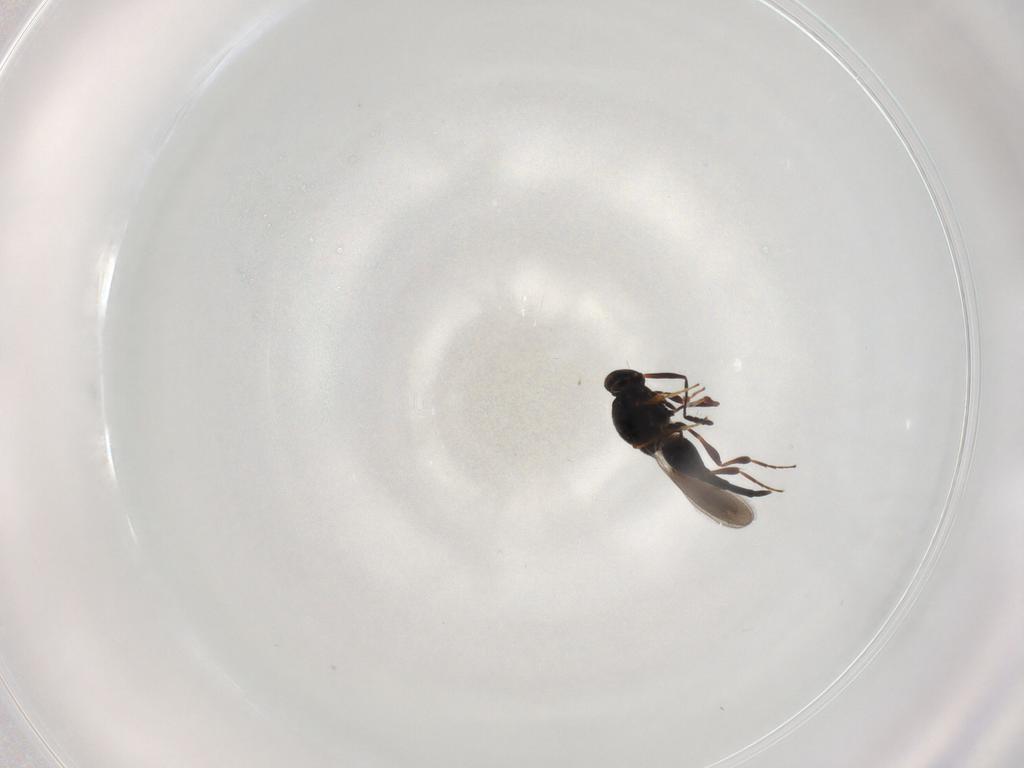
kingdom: Animalia
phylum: Arthropoda
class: Insecta
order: Hymenoptera
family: Platygastridae
